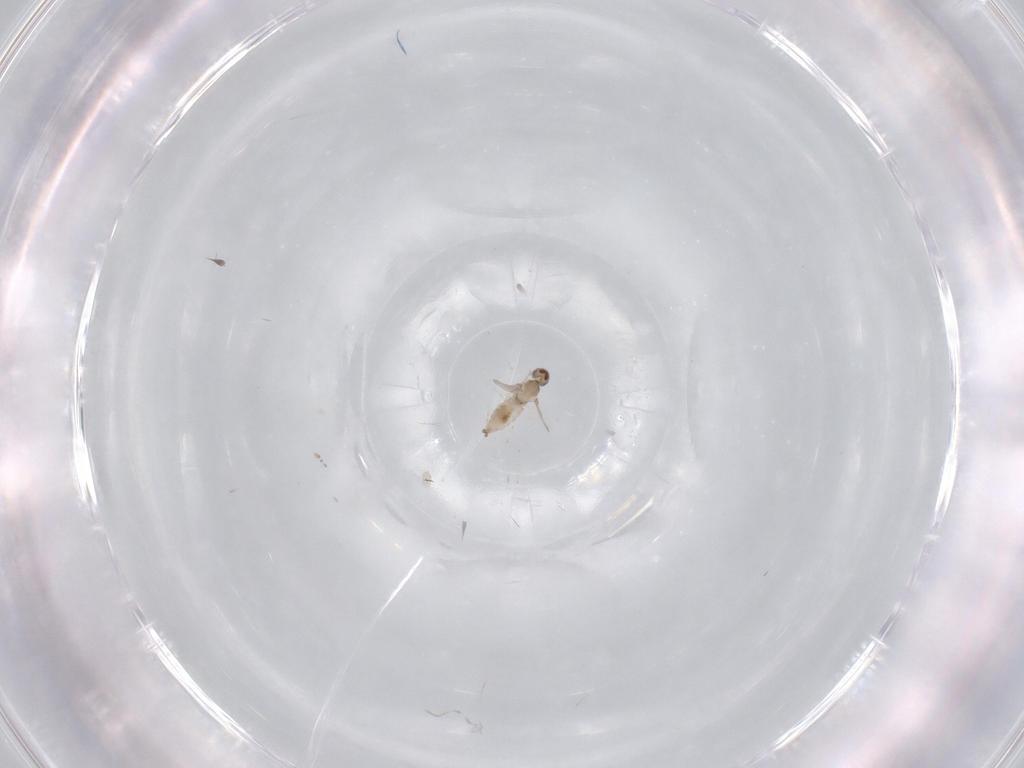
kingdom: Animalia
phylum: Arthropoda
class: Insecta
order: Diptera
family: Cecidomyiidae
